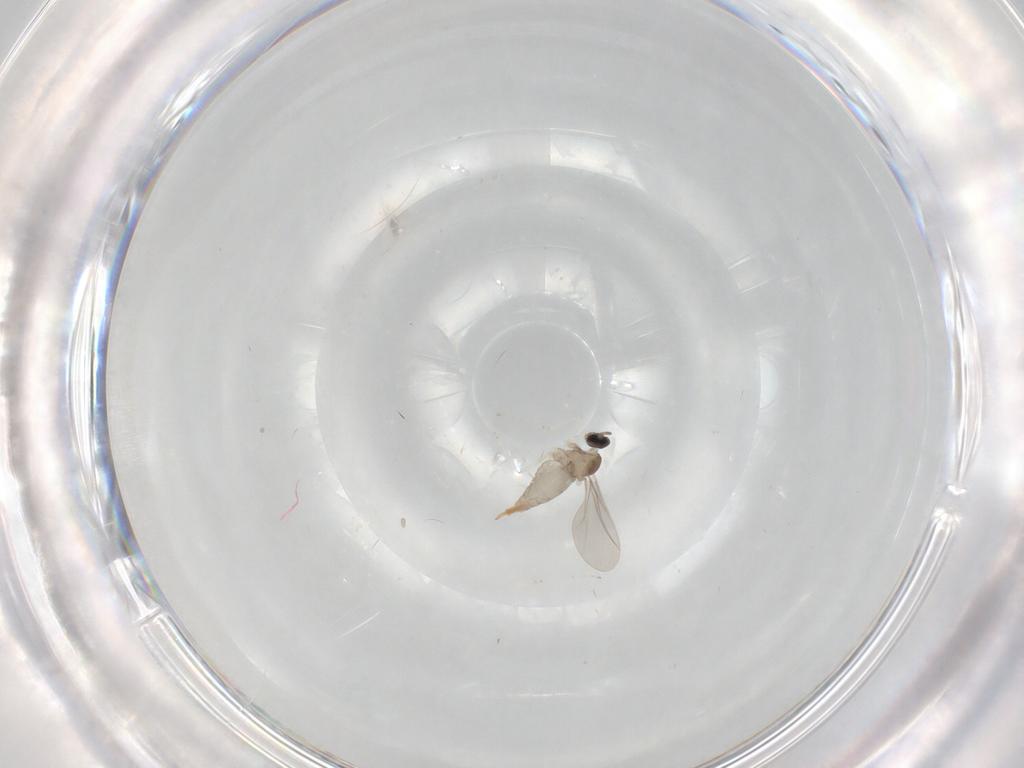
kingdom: Animalia
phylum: Arthropoda
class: Insecta
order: Diptera
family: Cecidomyiidae
